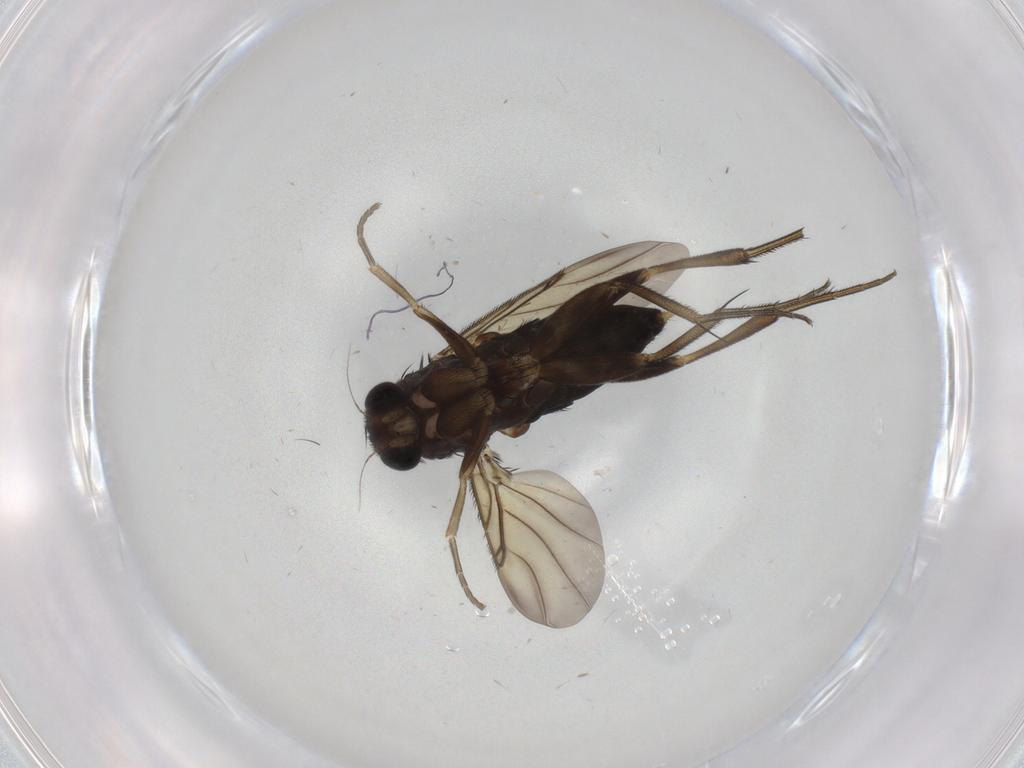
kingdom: Animalia
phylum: Arthropoda
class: Insecta
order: Diptera
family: Phoridae
